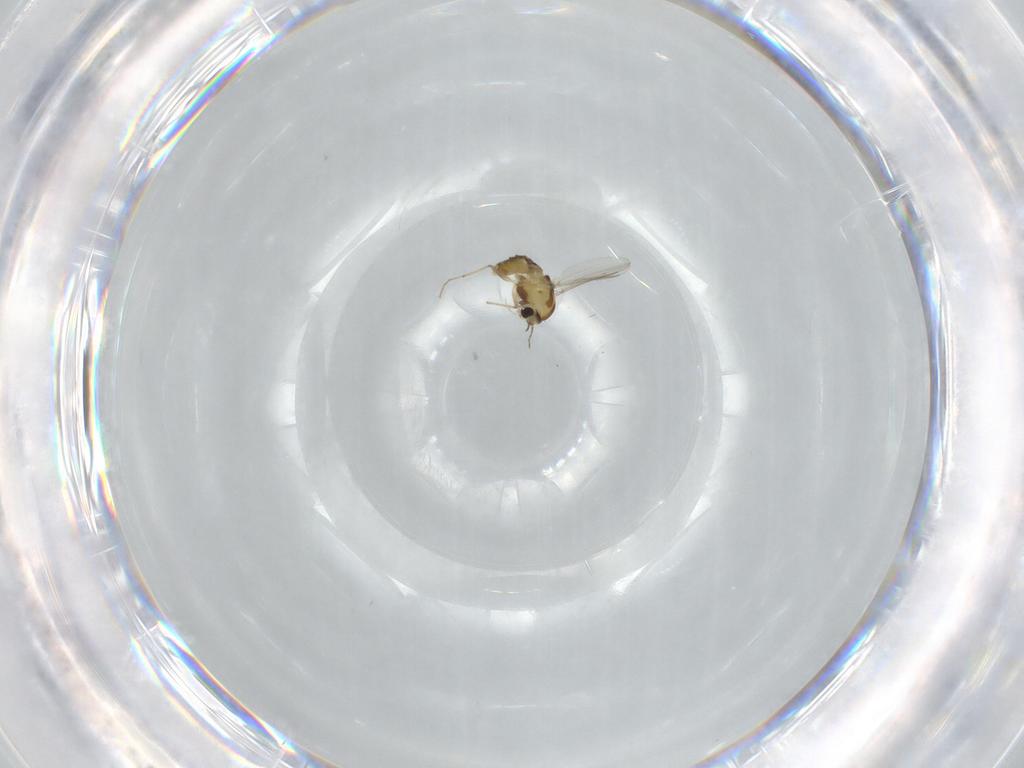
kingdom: Animalia
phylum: Arthropoda
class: Insecta
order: Diptera
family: Chironomidae
